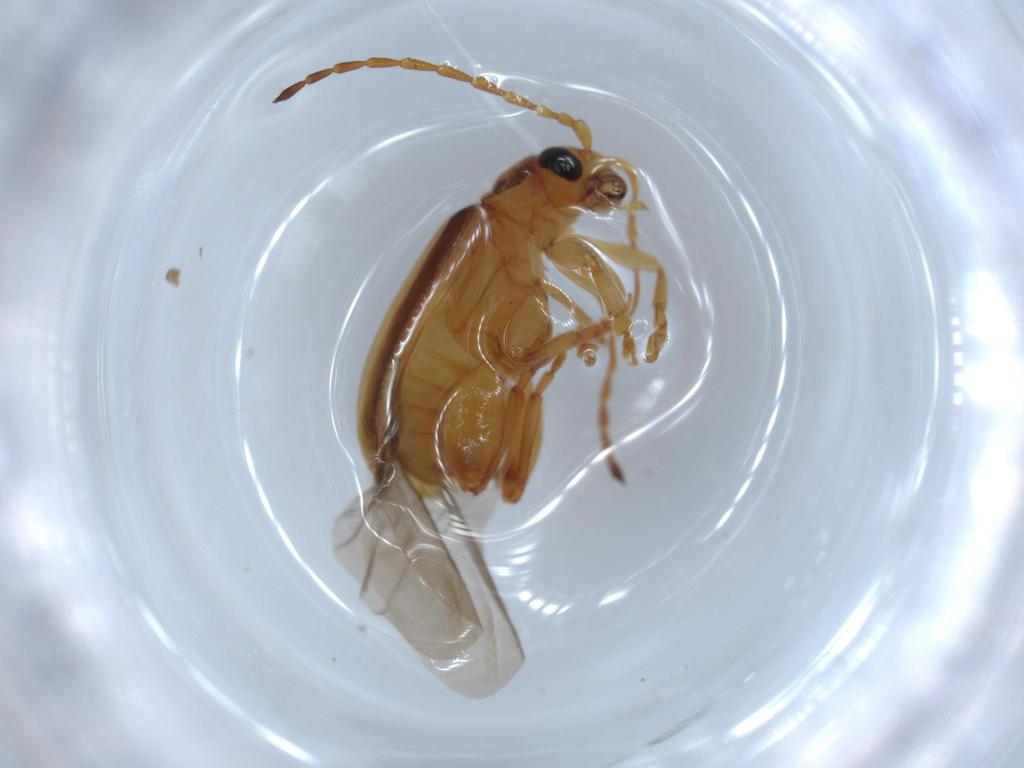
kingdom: Animalia
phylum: Arthropoda
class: Insecta
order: Coleoptera
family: Chrysomelidae
